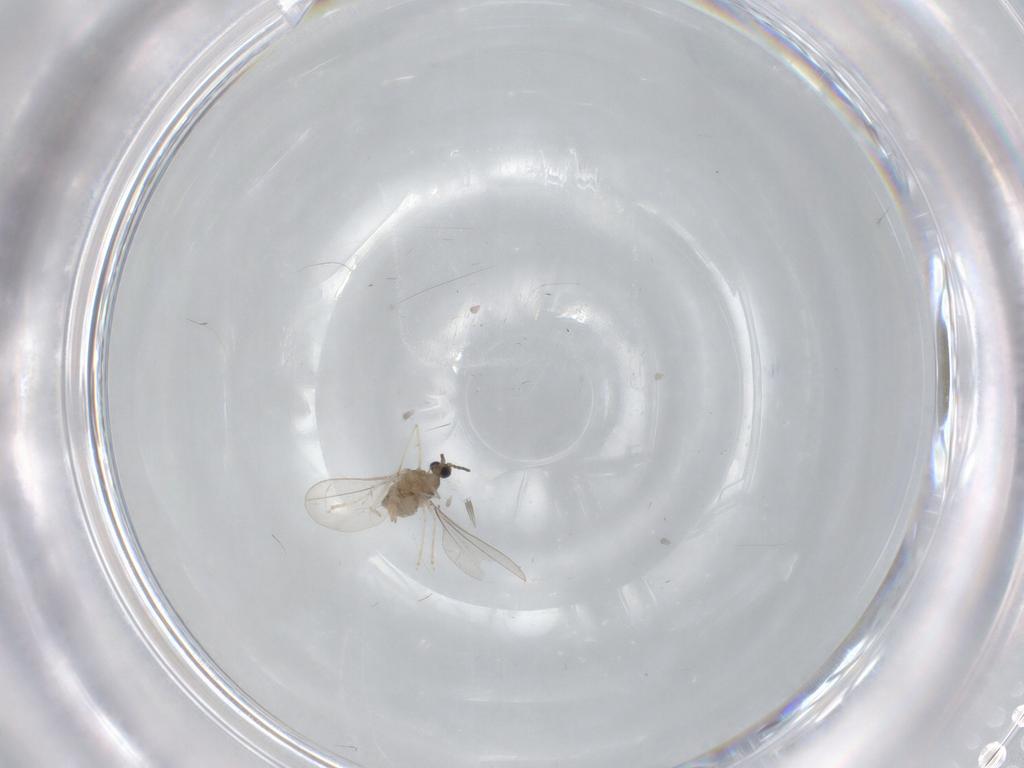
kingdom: Animalia
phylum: Arthropoda
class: Insecta
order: Diptera
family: Cecidomyiidae
